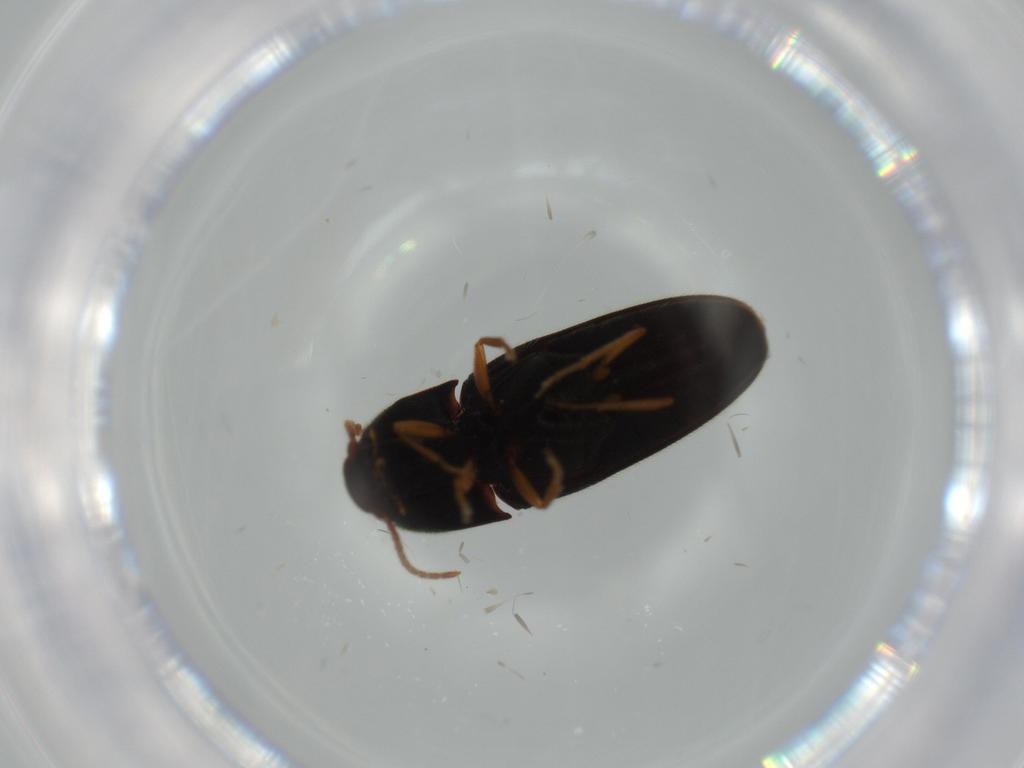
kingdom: Animalia
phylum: Arthropoda
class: Insecta
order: Coleoptera
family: Elateridae
